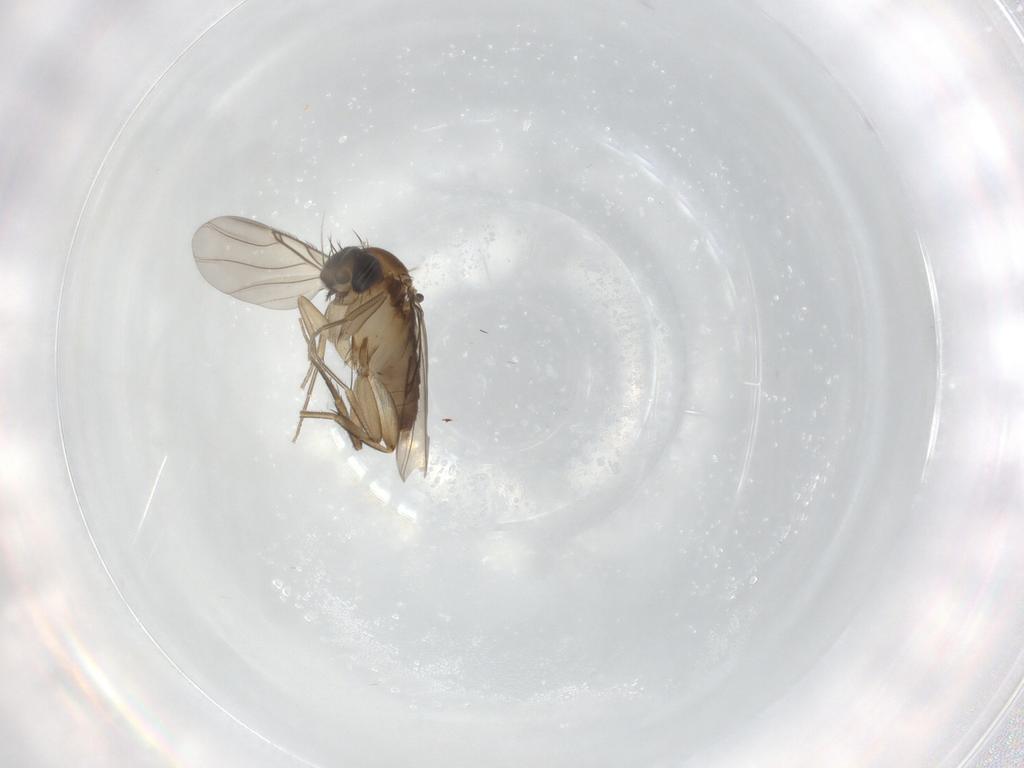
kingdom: Animalia
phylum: Arthropoda
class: Insecta
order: Diptera
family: Phoridae
